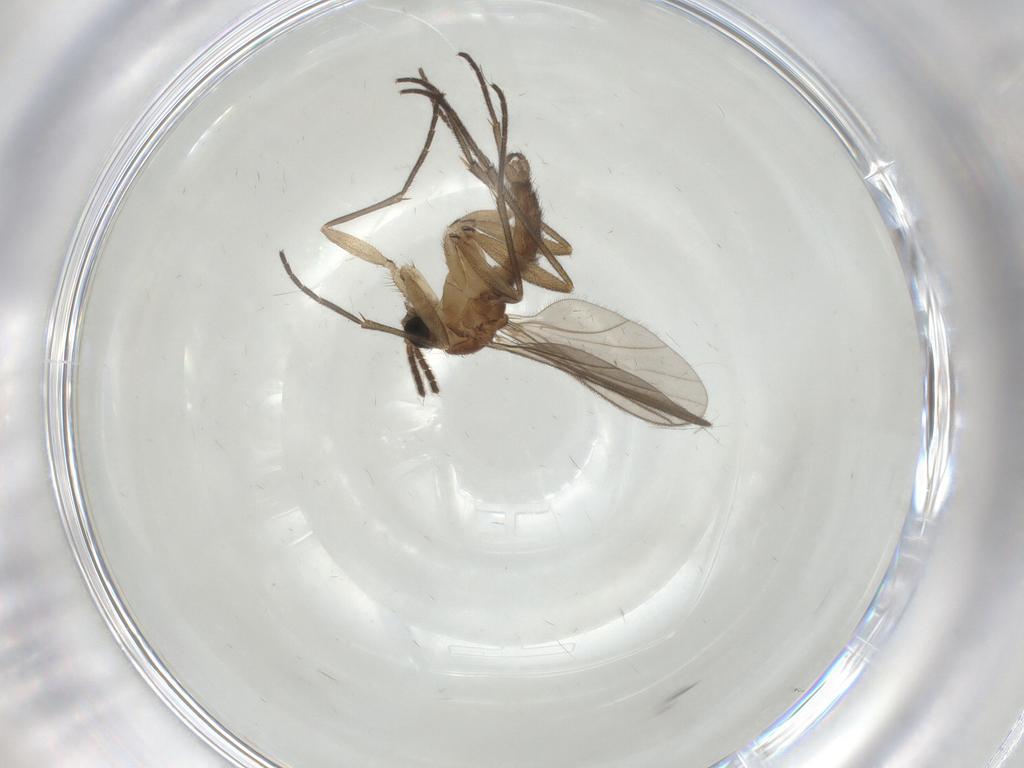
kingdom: Animalia
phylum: Arthropoda
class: Insecta
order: Diptera
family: Sciaridae
